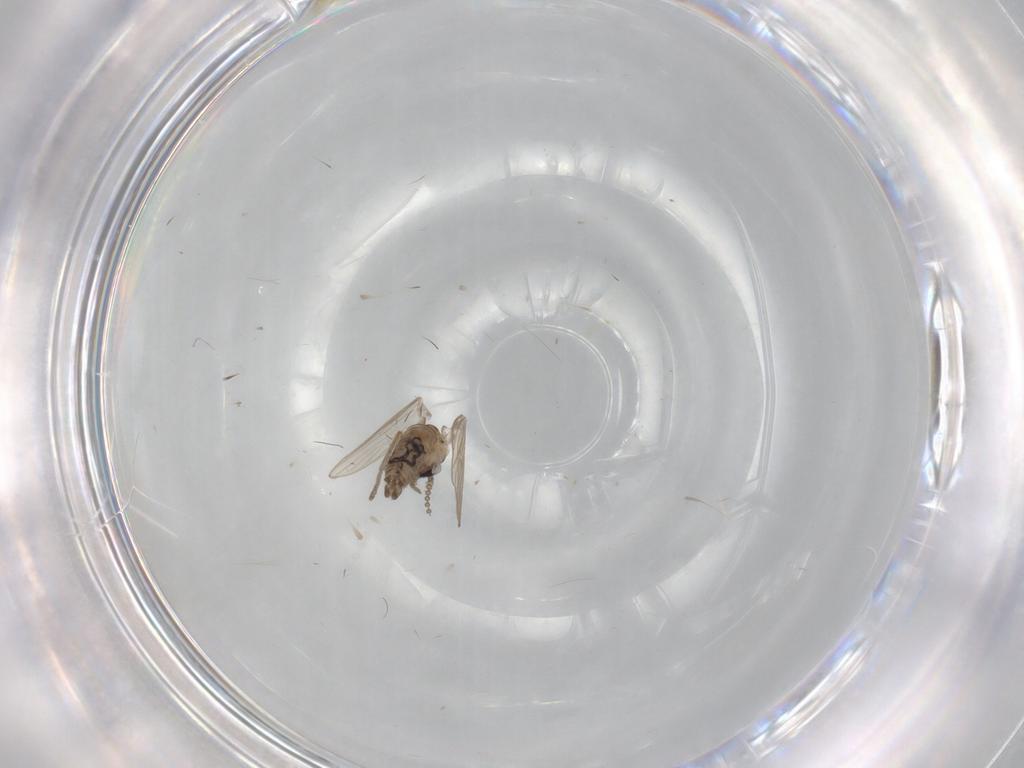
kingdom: Animalia
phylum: Arthropoda
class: Insecta
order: Diptera
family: Psychodidae
